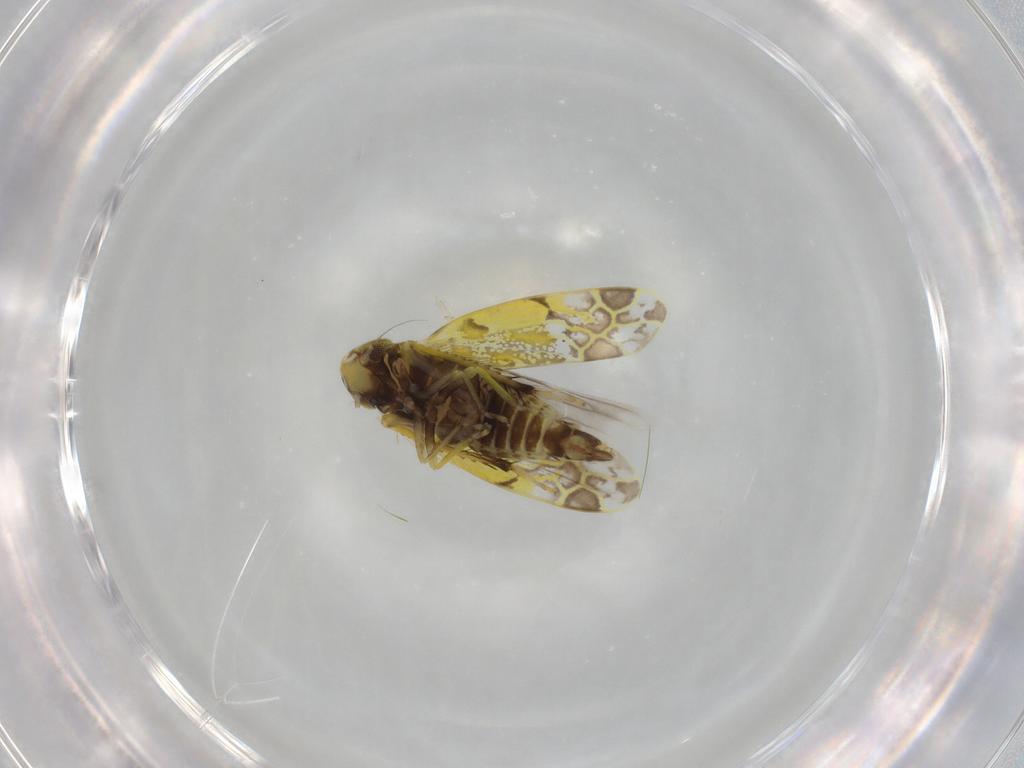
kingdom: Animalia
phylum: Arthropoda
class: Insecta
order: Hemiptera
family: Cicadellidae
